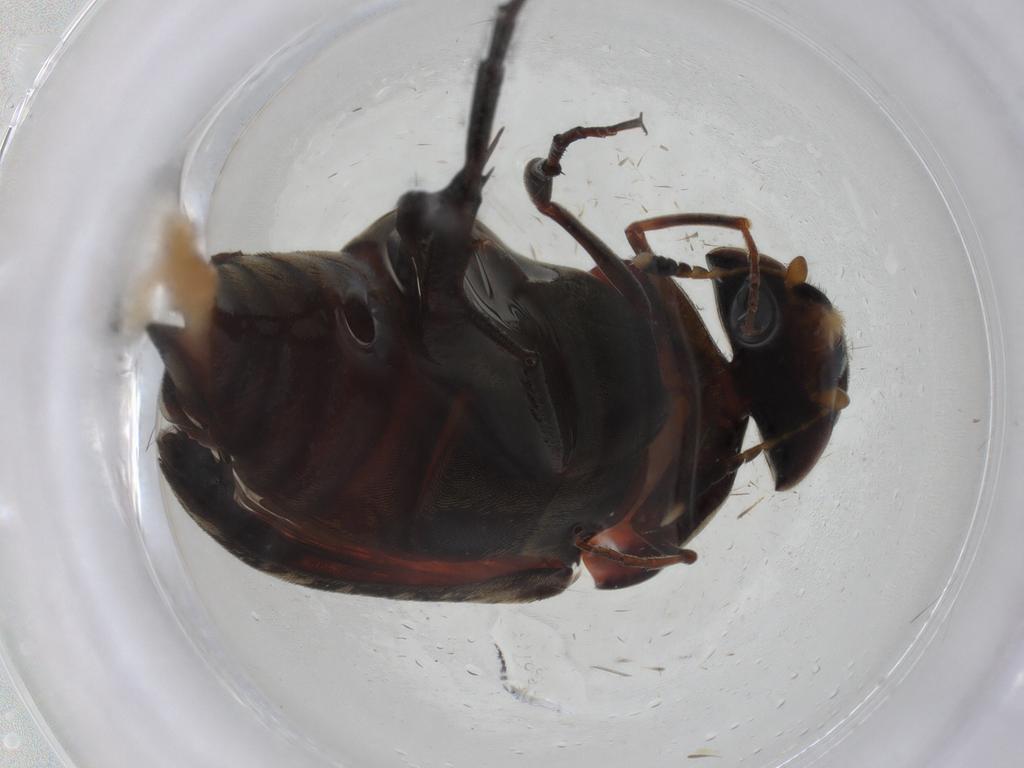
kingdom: Animalia
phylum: Arthropoda
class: Insecta
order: Coleoptera
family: Mordellidae
